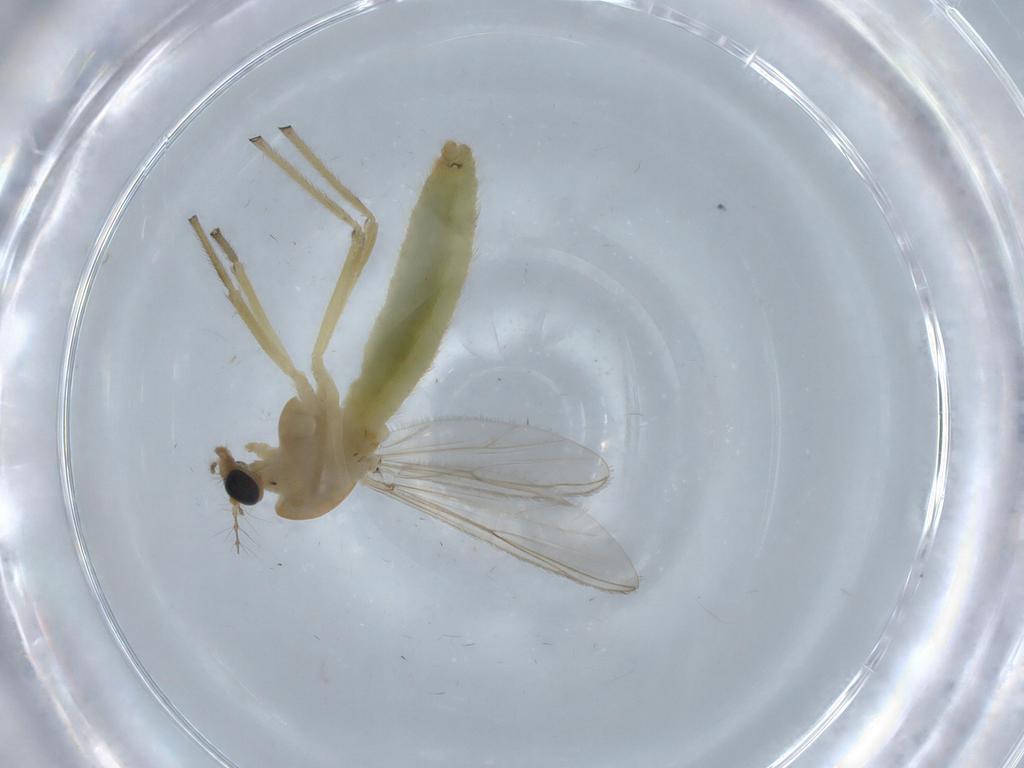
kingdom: Animalia
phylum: Arthropoda
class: Insecta
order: Diptera
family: Chironomidae
